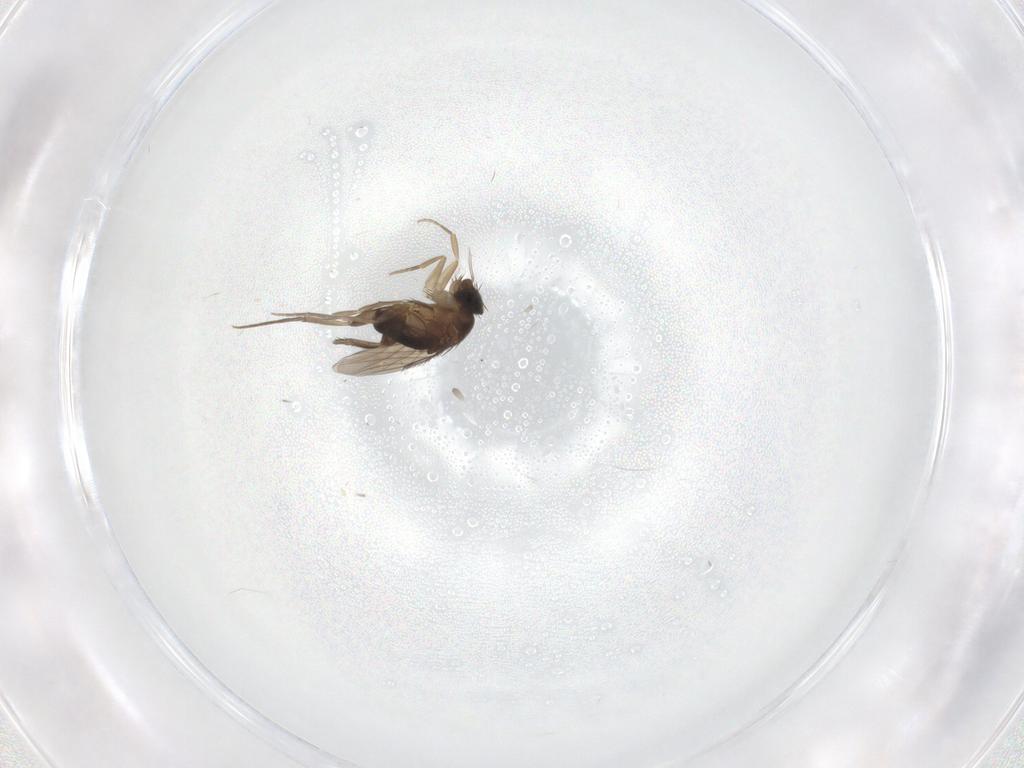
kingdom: Animalia
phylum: Arthropoda
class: Insecta
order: Diptera
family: Phoridae
